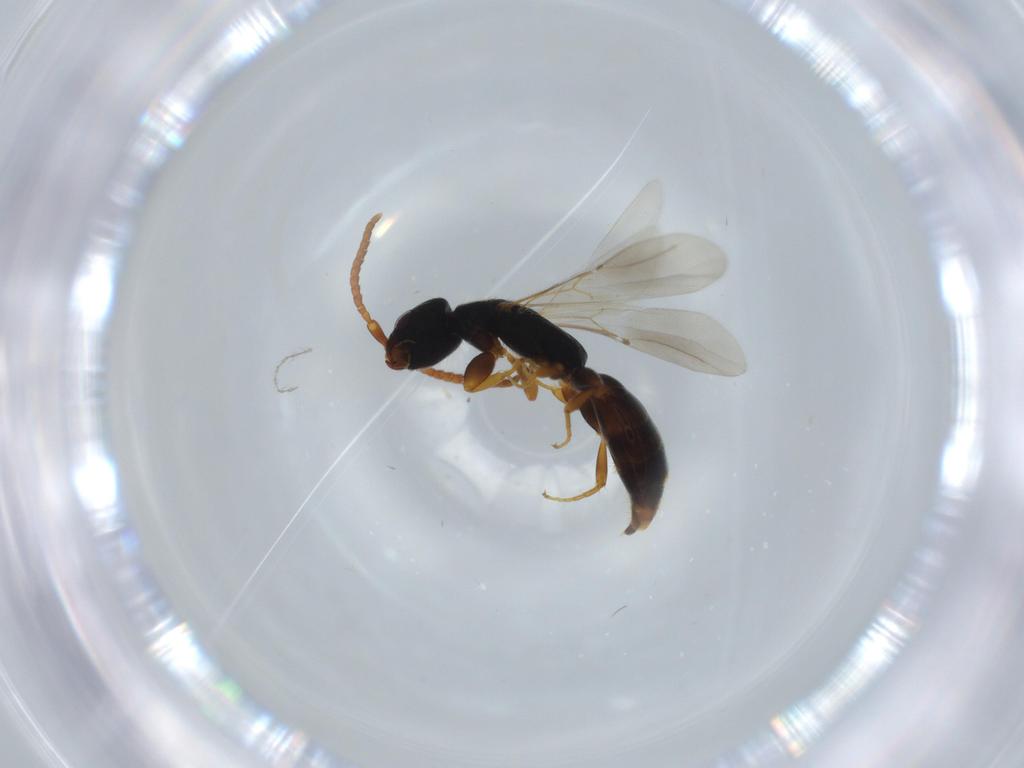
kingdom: Animalia
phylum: Arthropoda
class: Insecta
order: Hymenoptera
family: Bethylidae
